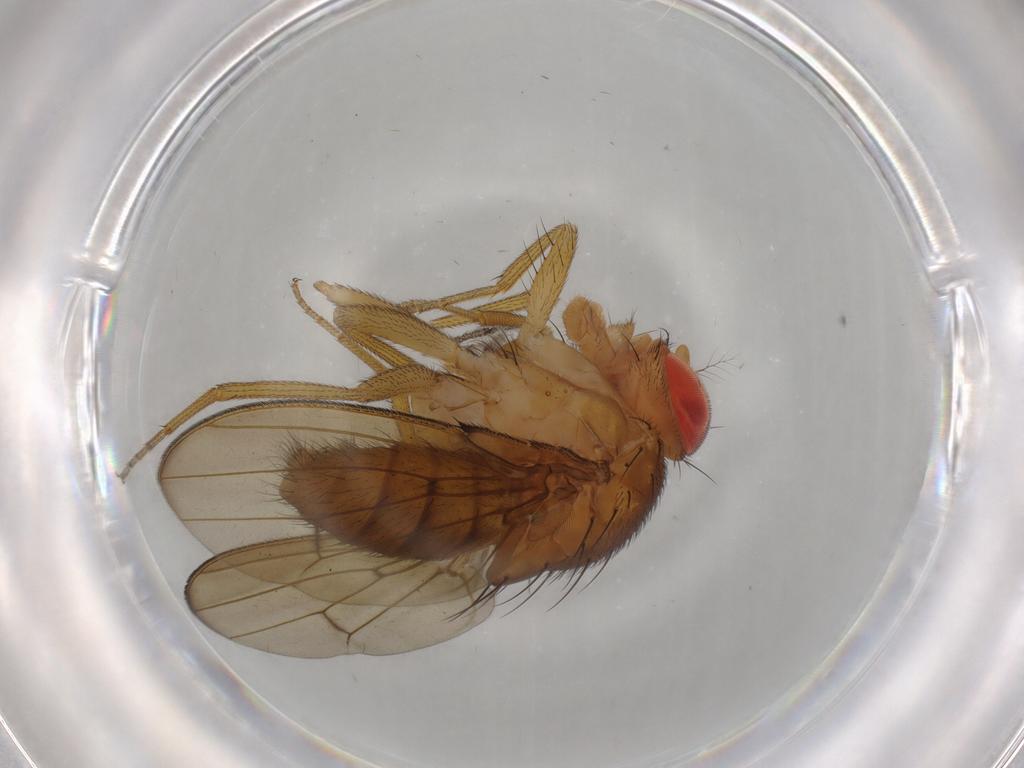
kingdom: Animalia
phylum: Arthropoda
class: Insecta
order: Diptera
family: Drosophilidae
